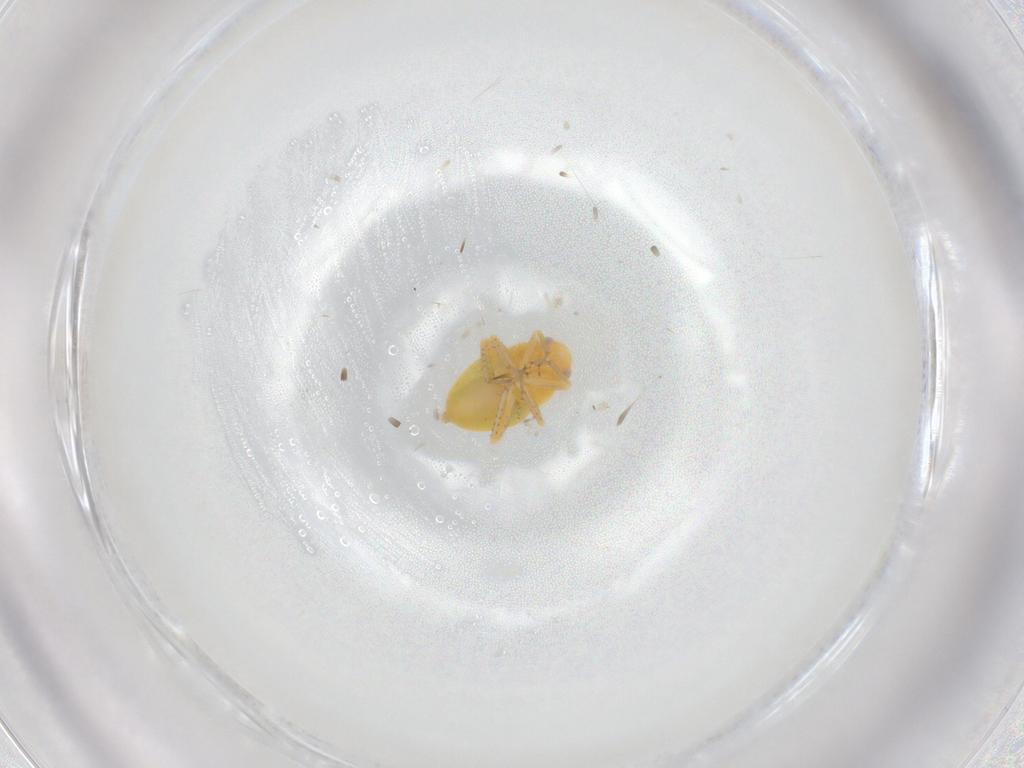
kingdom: Animalia
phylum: Arthropoda
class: Insecta
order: Hemiptera
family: Miridae
